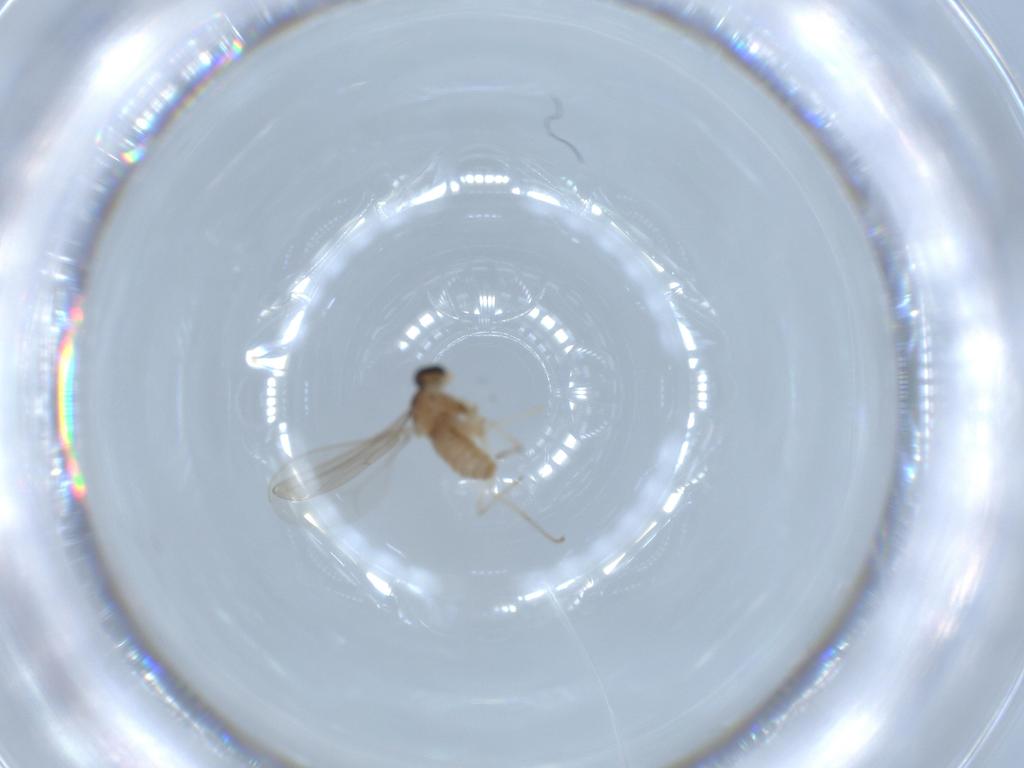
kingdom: Animalia
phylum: Arthropoda
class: Insecta
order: Diptera
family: Cecidomyiidae
